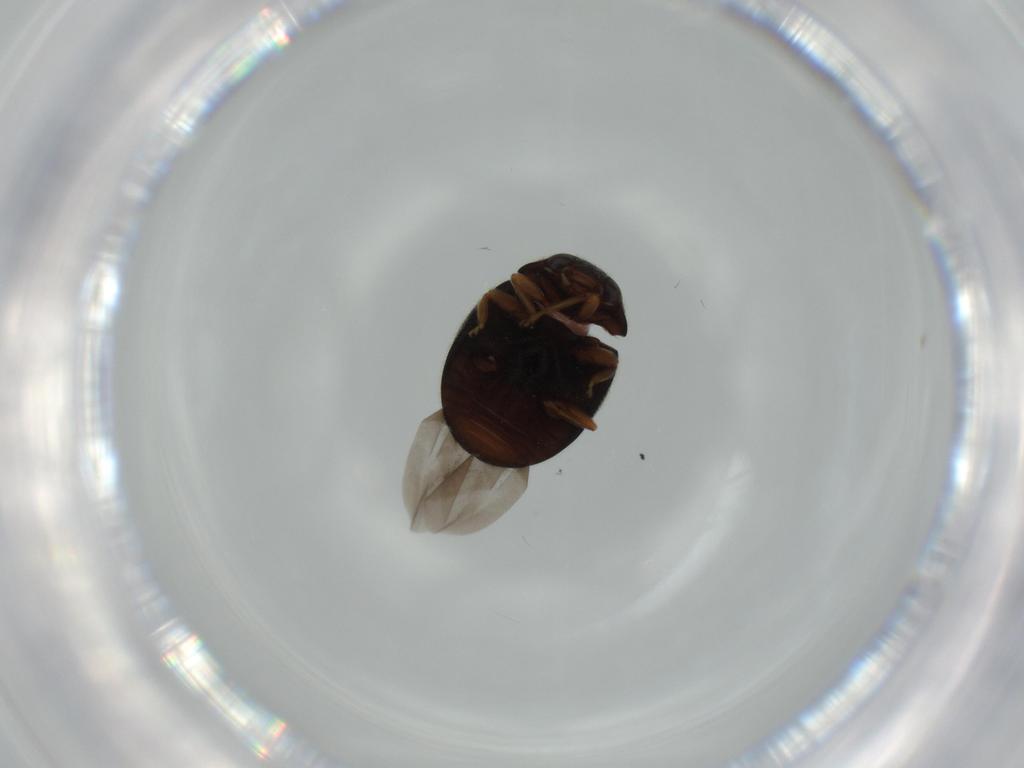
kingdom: Animalia
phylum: Arthropoda
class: Insecta
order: Coleoptera
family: Coccinellidae
